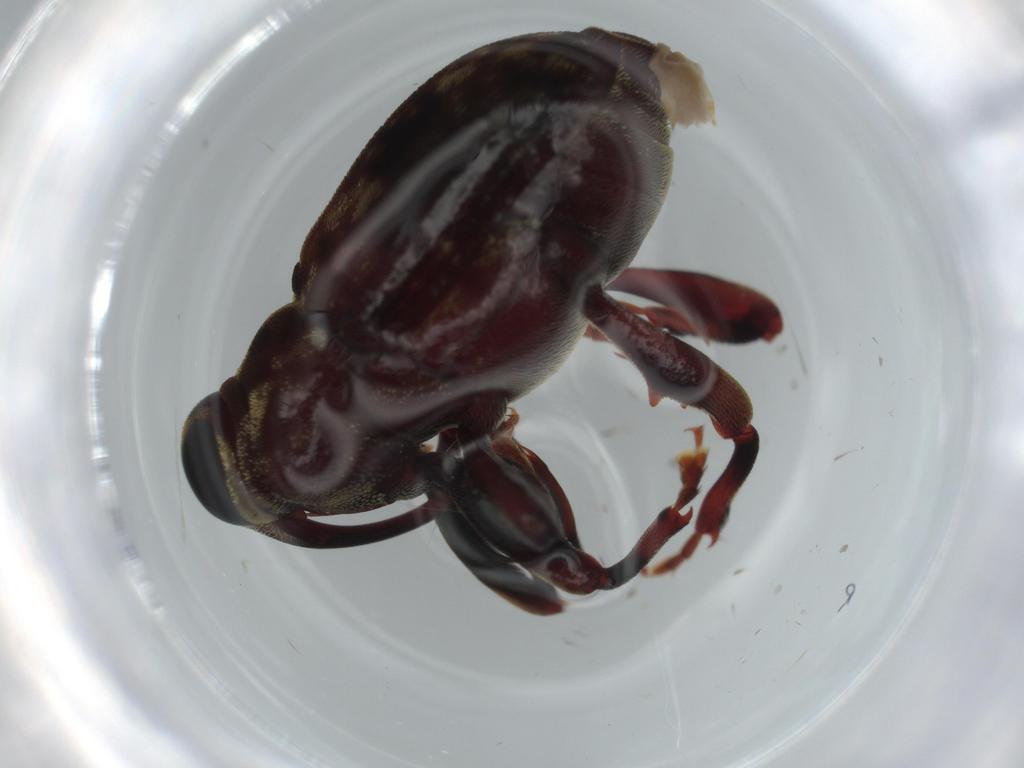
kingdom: Animalia
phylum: Arthropoda
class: Insecta
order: Coleoptera
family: Curculionidae
